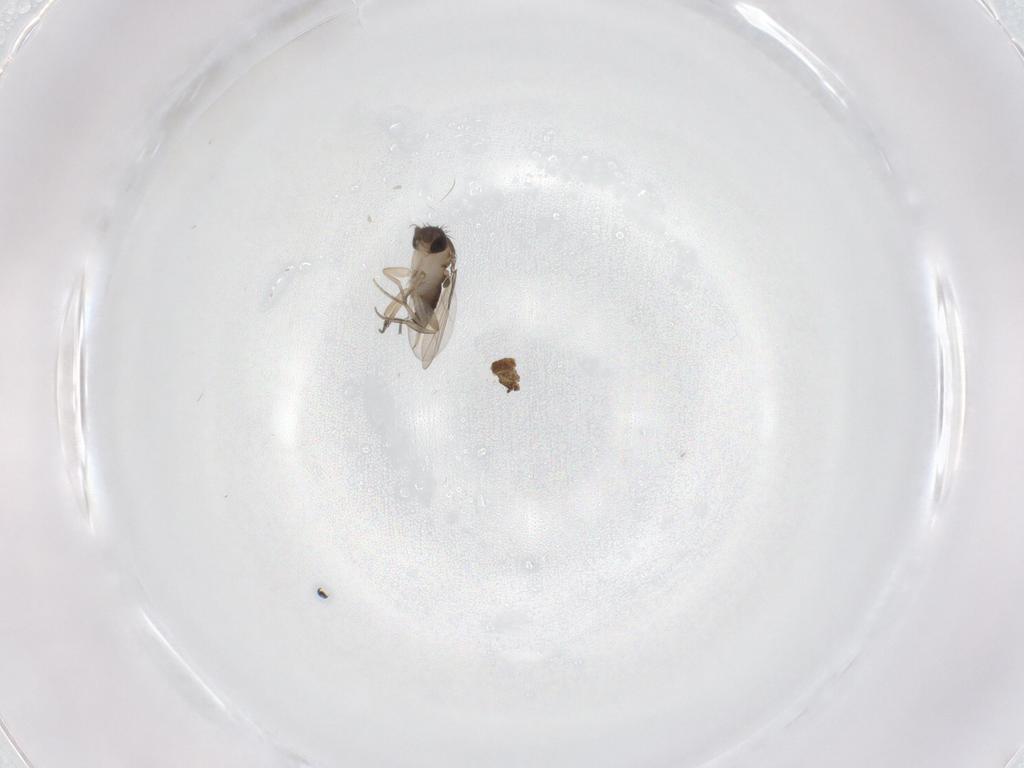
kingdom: Animalia
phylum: Arthropoda
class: Insecta
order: Diptera
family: Phoridae
